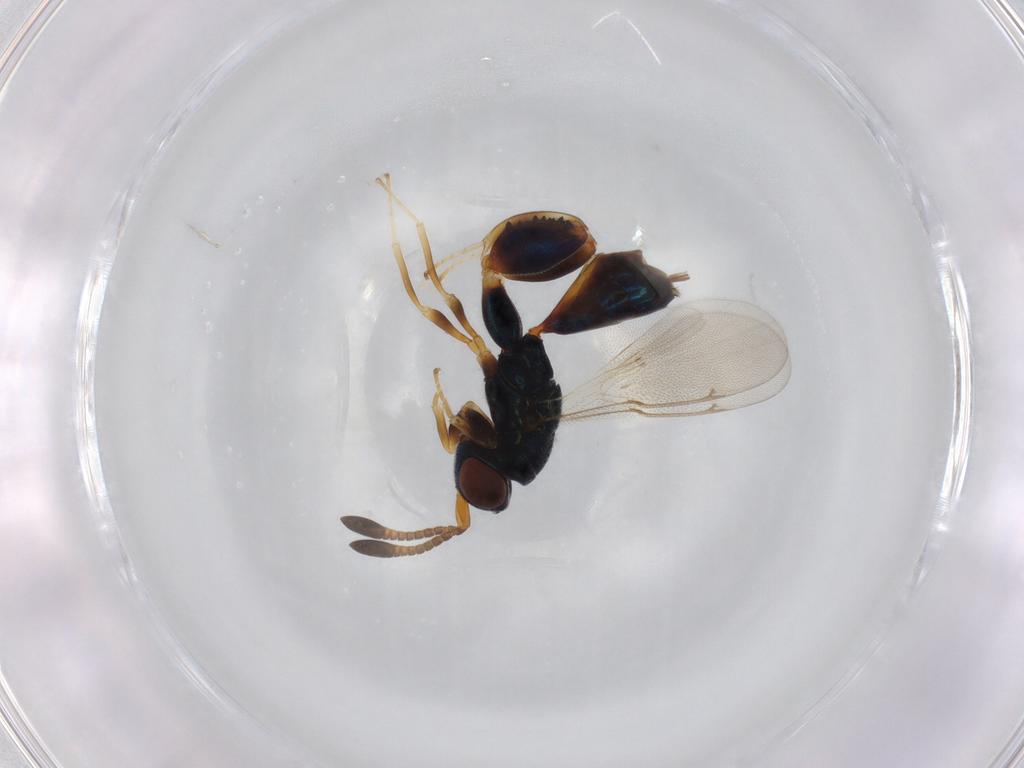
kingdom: Animalia
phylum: Arthropoda
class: Insecta
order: Hymenoptera
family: Torymidae
